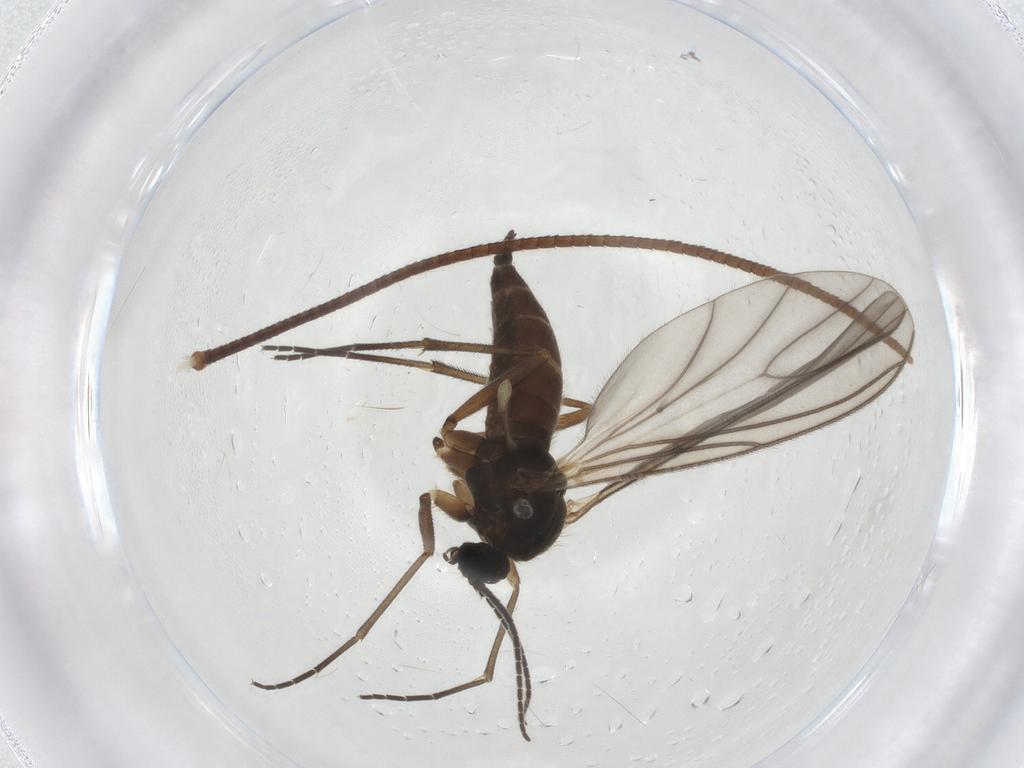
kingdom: Animalia
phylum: Arthropoda
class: Insecta
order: Diptera
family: Sciaridae
